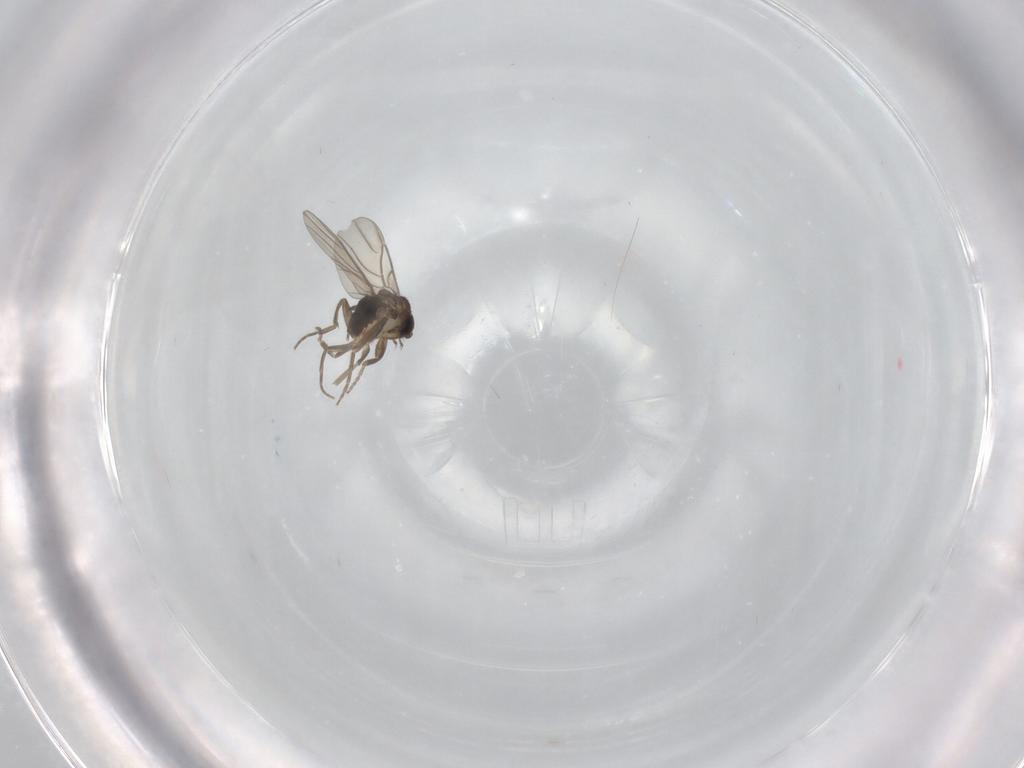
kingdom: Animalia
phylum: Arthropoda
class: Insecta
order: Diptera
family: Phoridae
